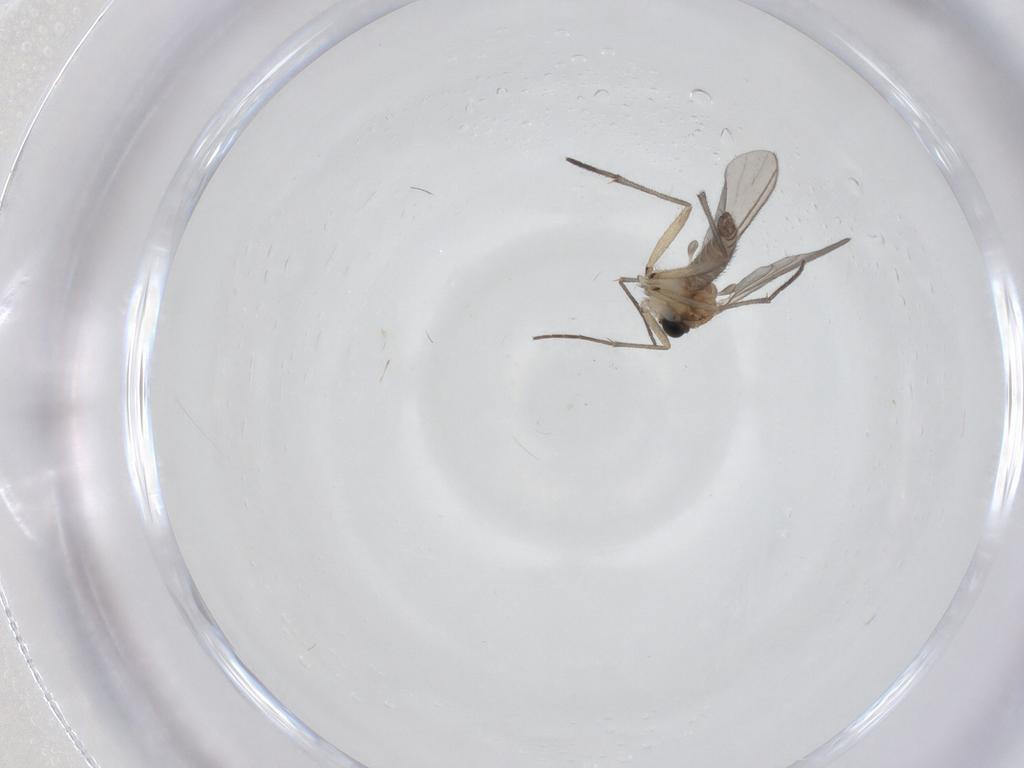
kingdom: Animalia
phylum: Arthropoda
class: Insecta
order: Diptera
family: Sciaridae
